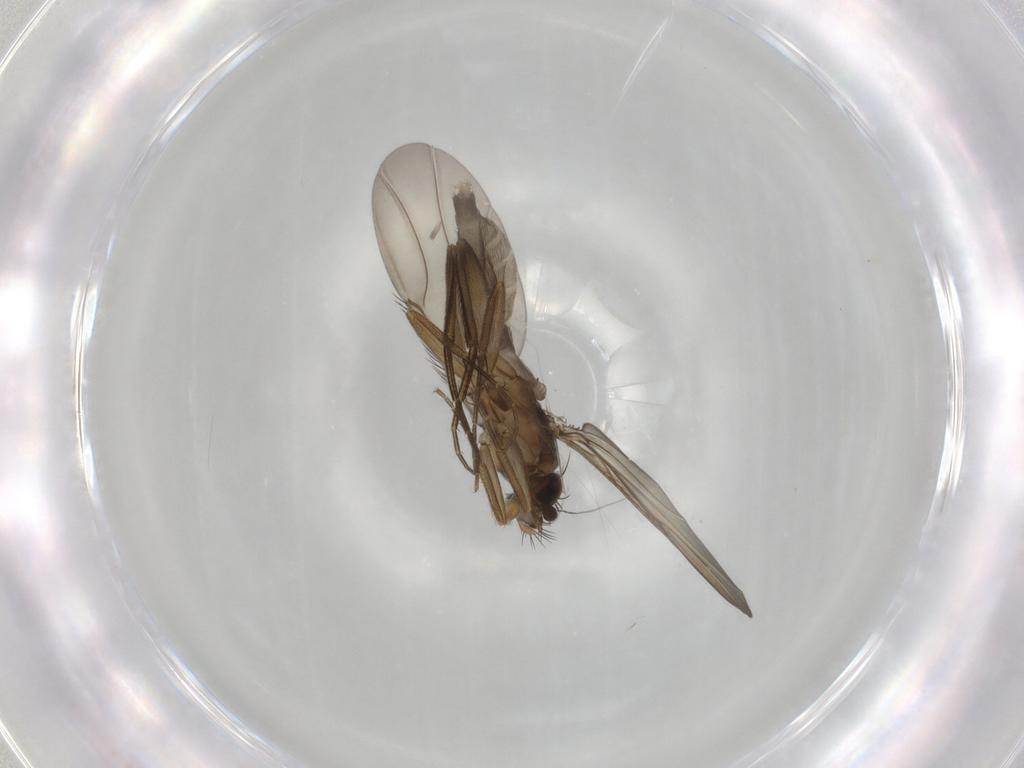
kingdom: Animalia
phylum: Arthropoda
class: Insecta
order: Diptera
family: Phoridae
